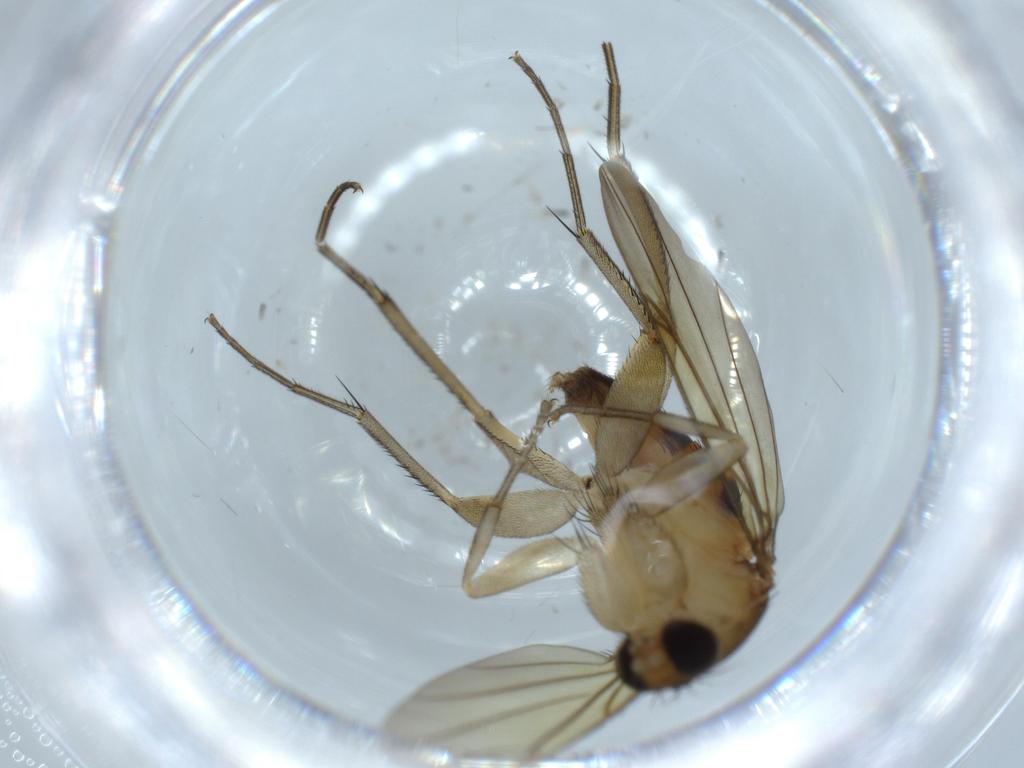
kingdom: Animalia
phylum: Arthropoda
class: Insecta
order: Diptera
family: Phoridae
